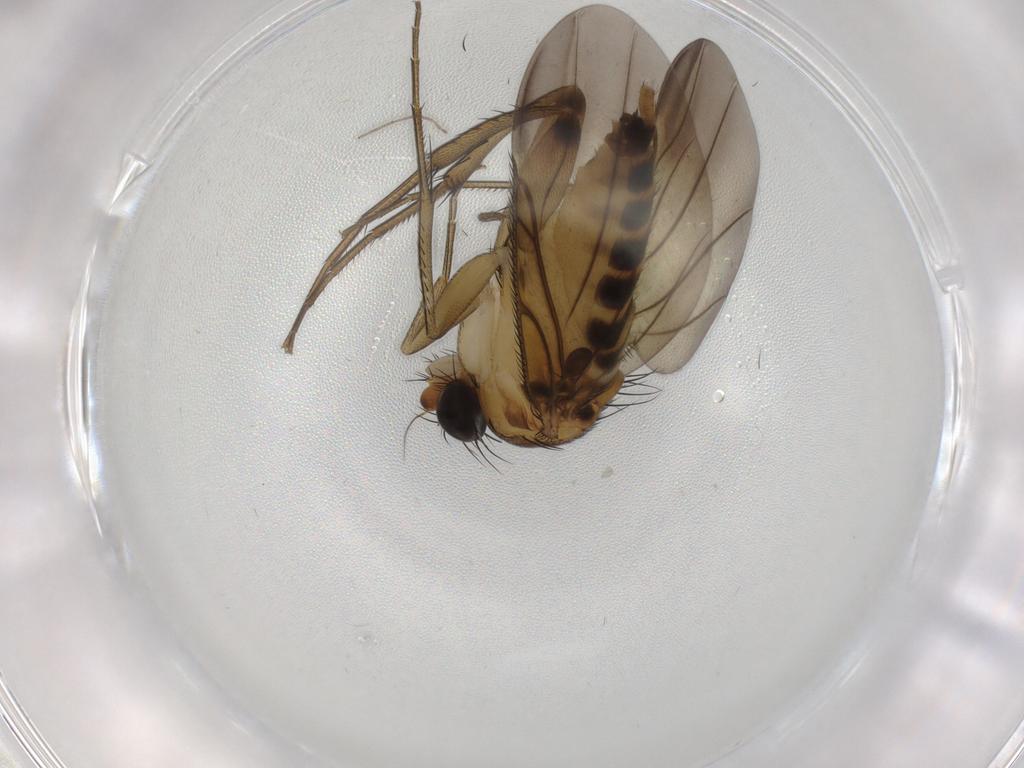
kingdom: Animalia
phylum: Arthropoda
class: Insecta
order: Diptera
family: Phoridae
